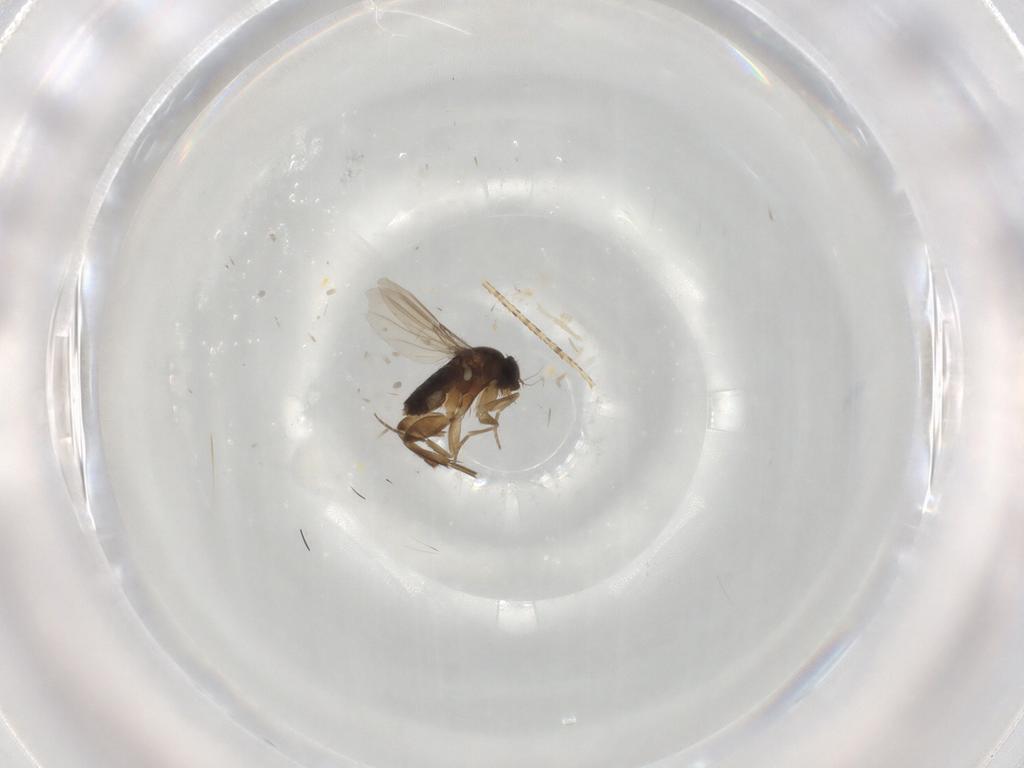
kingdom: Animalia
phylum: Arthropoda
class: Insecta
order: Diptera
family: Phoridae
